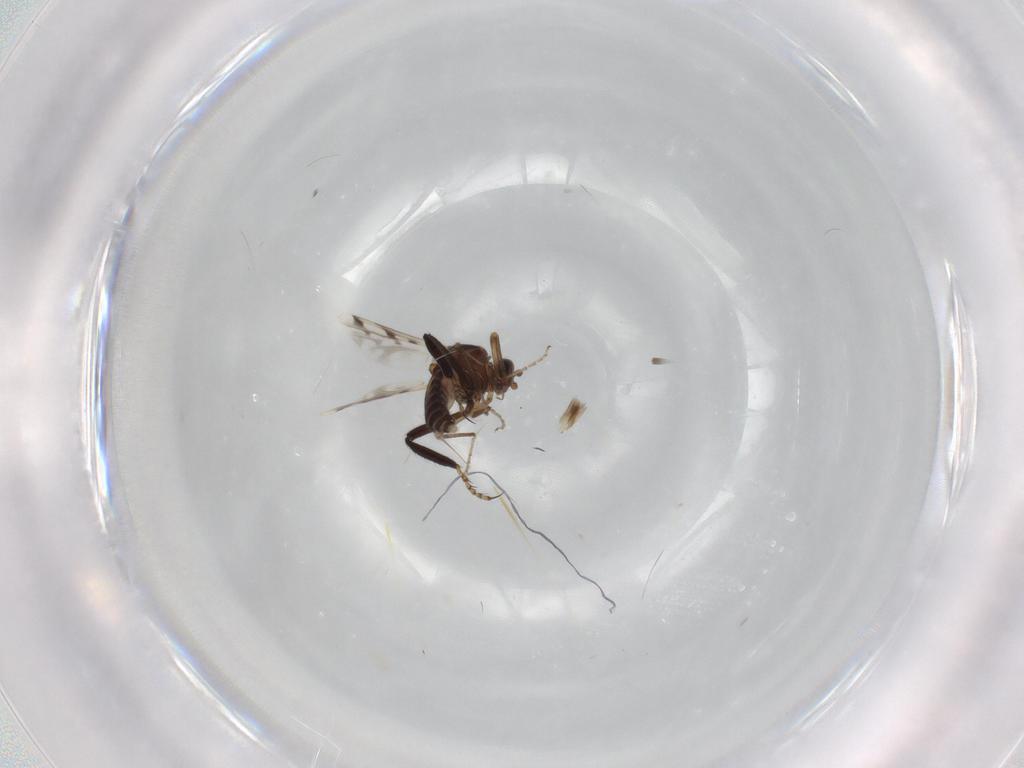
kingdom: Animalia
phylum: Arthropoda
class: Insecta
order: Diptera
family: Ceratopogonidae
